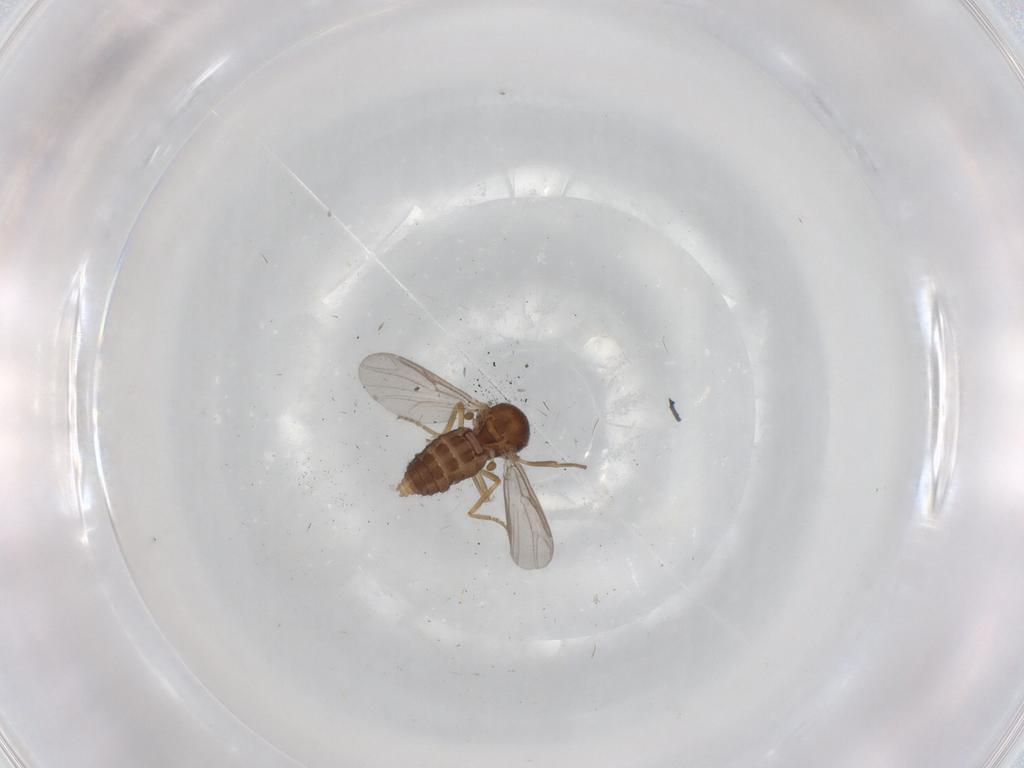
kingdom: Animalia
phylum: Arthropoda
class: Insecta
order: Diptera
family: Ceratopogonidae
